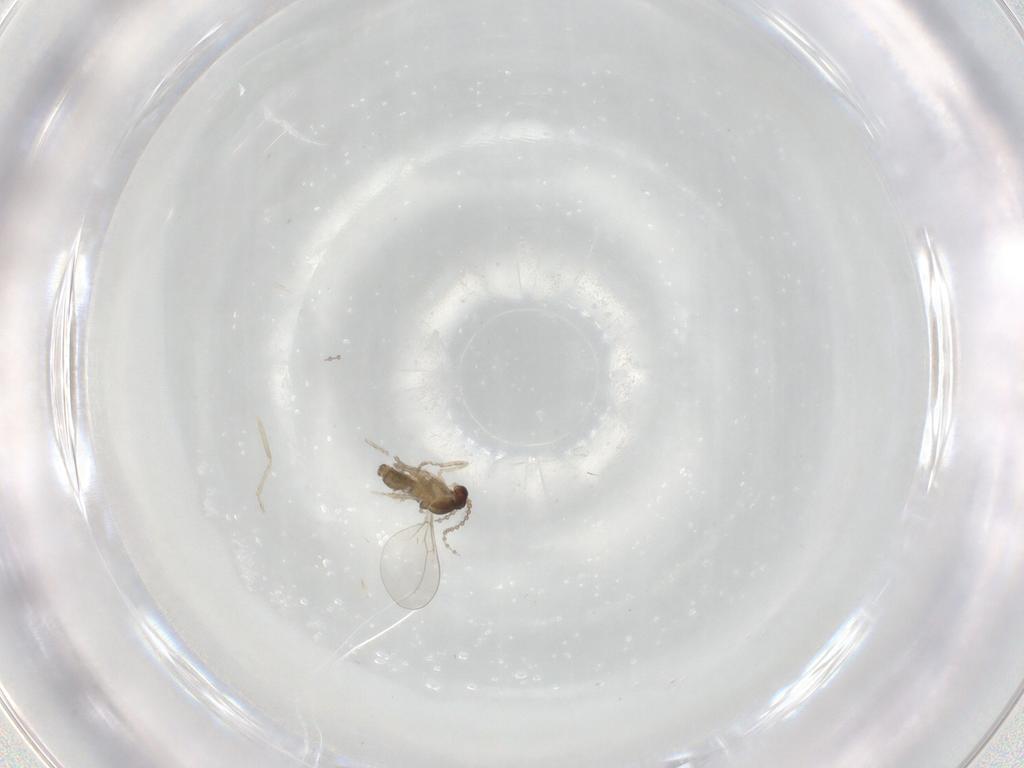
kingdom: Animalia
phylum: Arthropoda
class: Insecta
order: Diptera
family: Cecidomyiidae
